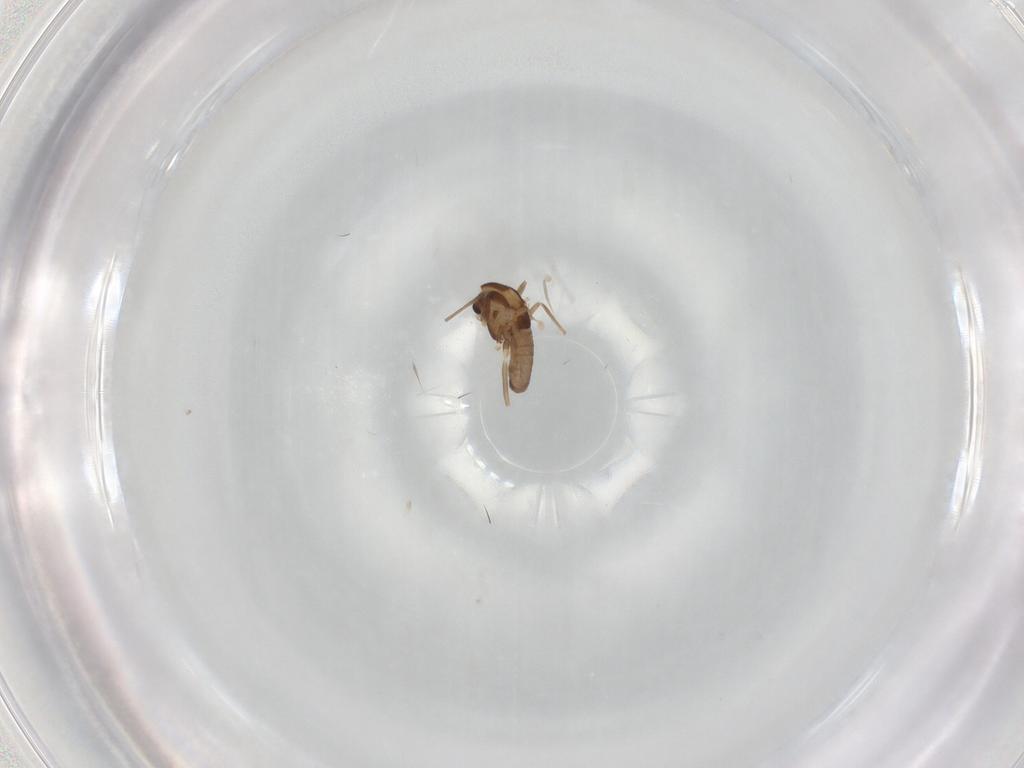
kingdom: Animalia
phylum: Arthropoda
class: Insecta
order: Diptera
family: Chironomidae
